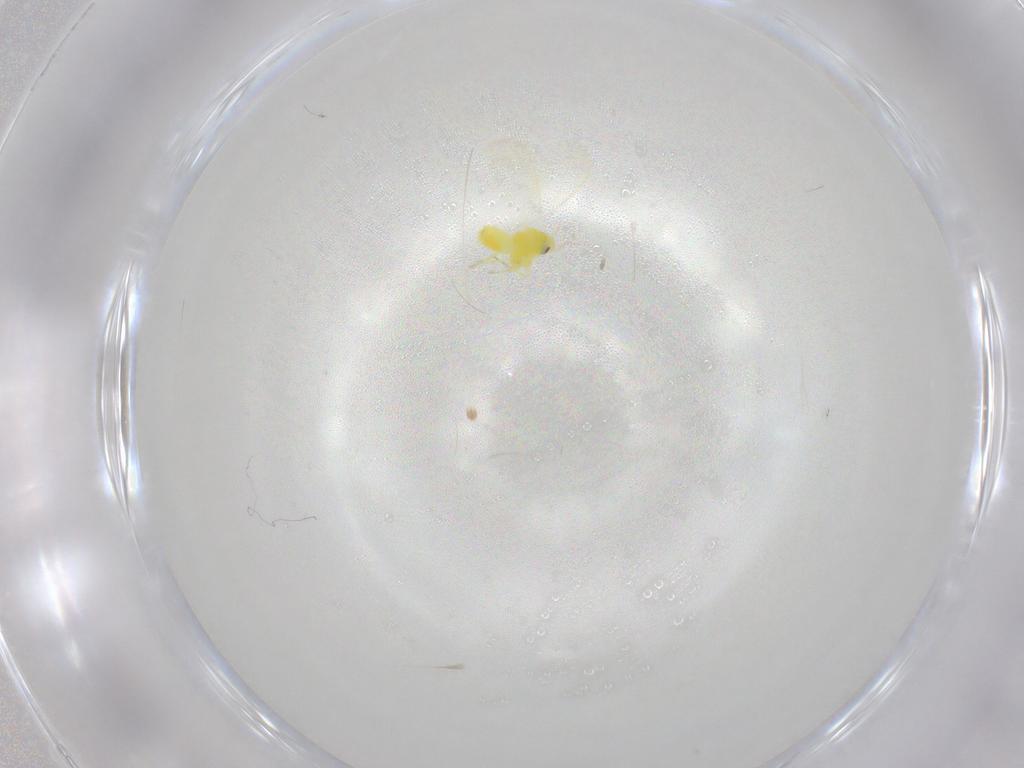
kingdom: Animalia
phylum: Arthropoda
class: Insecta
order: Hemiptera
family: Aleyrodidae
